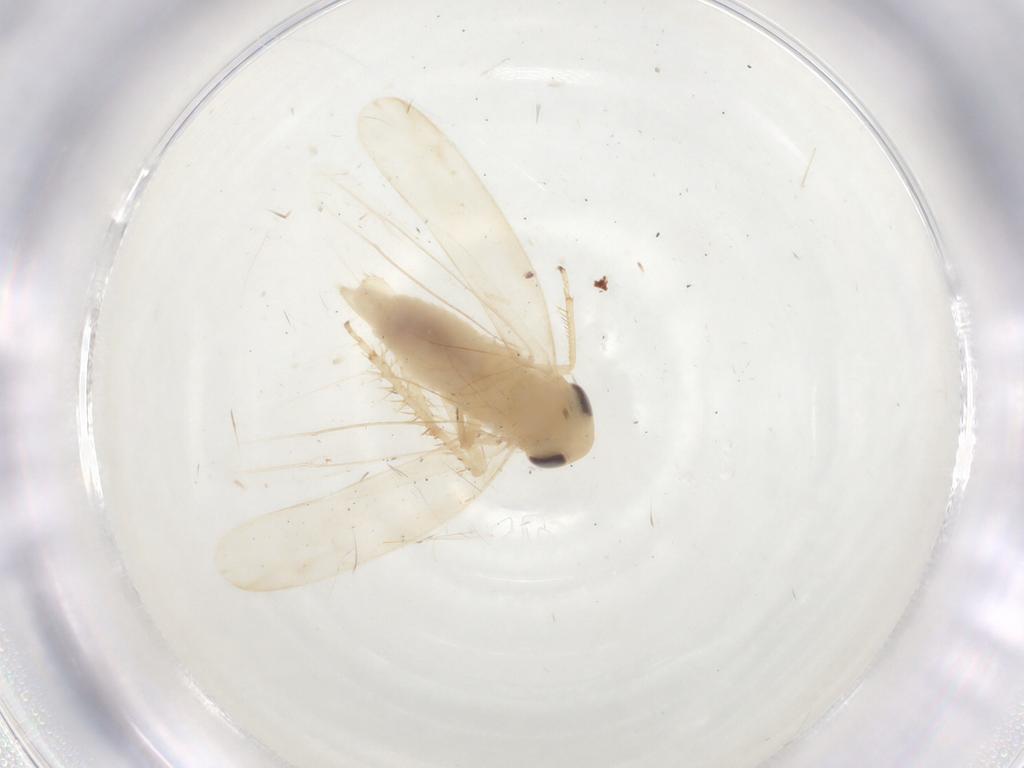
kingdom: Animalia
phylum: Arthropoda
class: Insecta
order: Hemiptera
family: Cicadellidae
